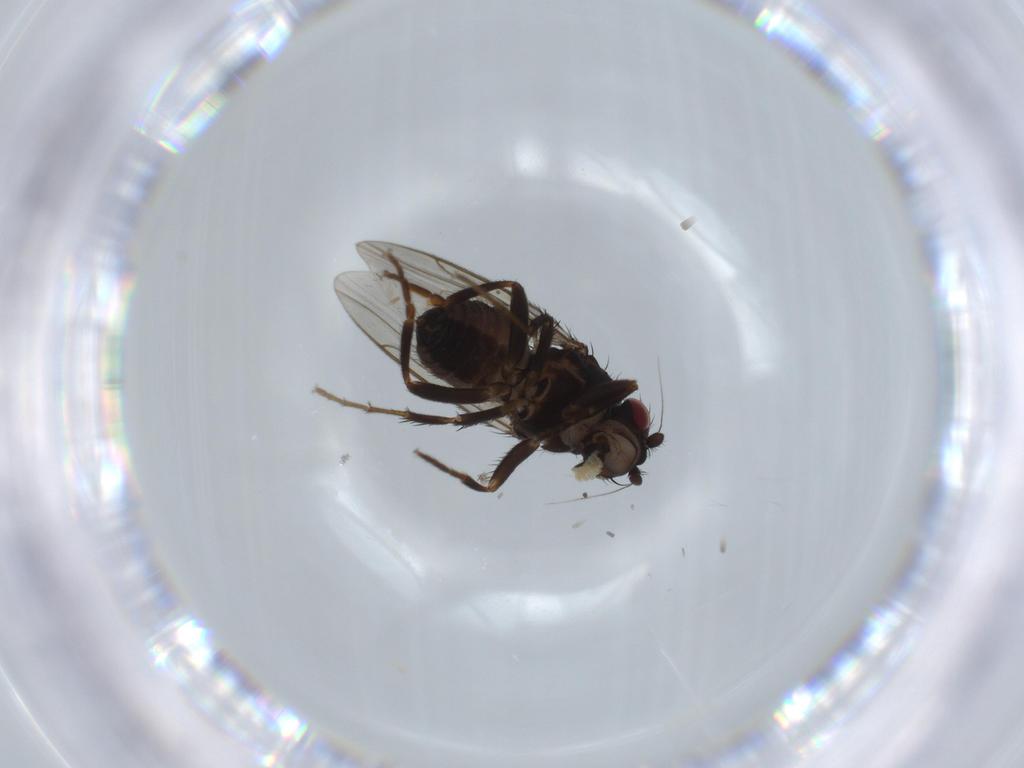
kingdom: Animalia
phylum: Arthropoda
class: Insecta
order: Diptera
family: Sphaeroceridae
